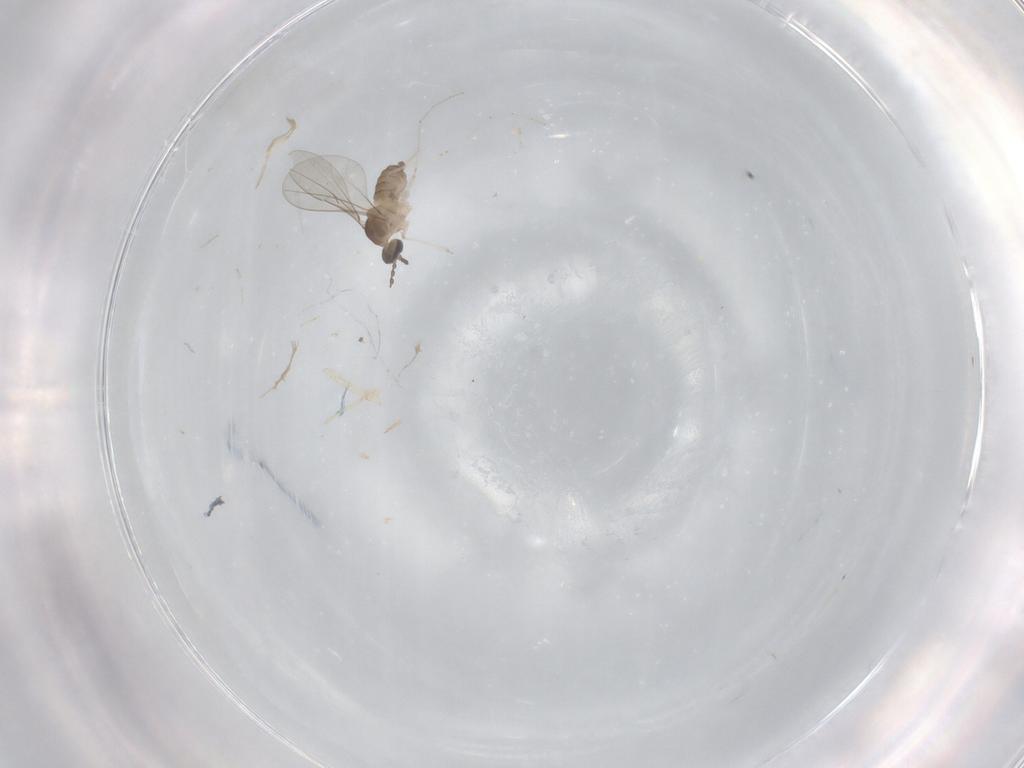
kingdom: Animalia
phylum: Arthropoda
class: Insecta
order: Diptera
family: Cecidomyiidae
